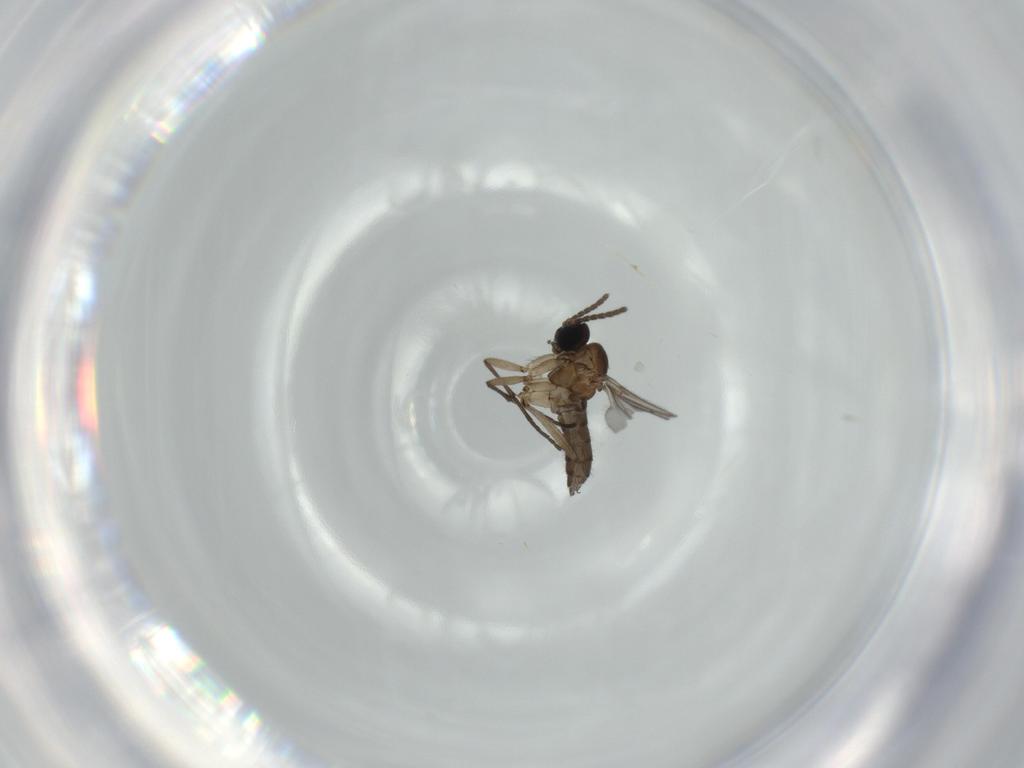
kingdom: Animalia
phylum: Arthropoda
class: Insecta
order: Diptera
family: Sciaridae
